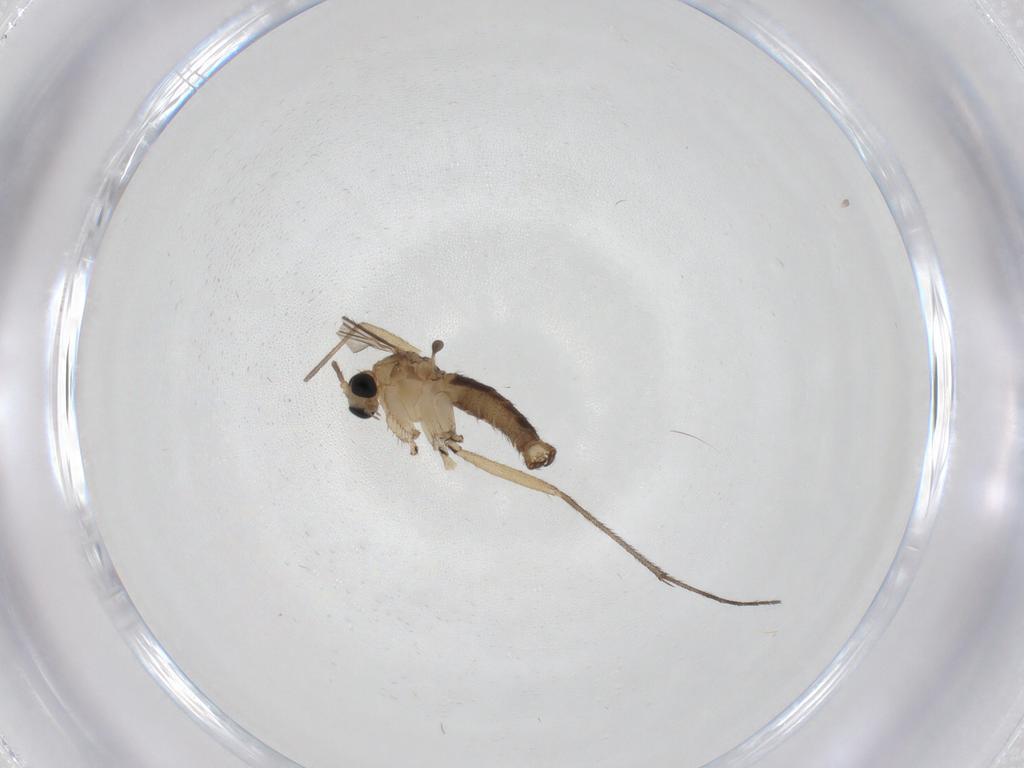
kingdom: Animalia
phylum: Arthropoda
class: Insecta
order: Diptera
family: Sciaridae
